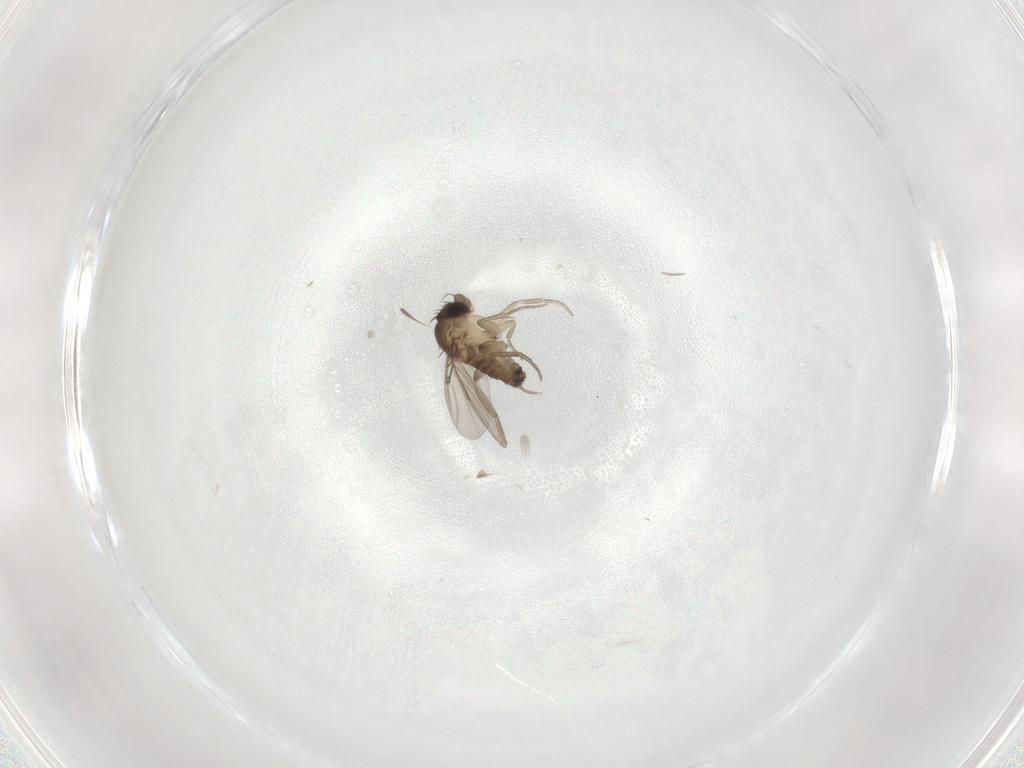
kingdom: Animalia
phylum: Arthropoda
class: Insecta
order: Diptera
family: Phoridae
